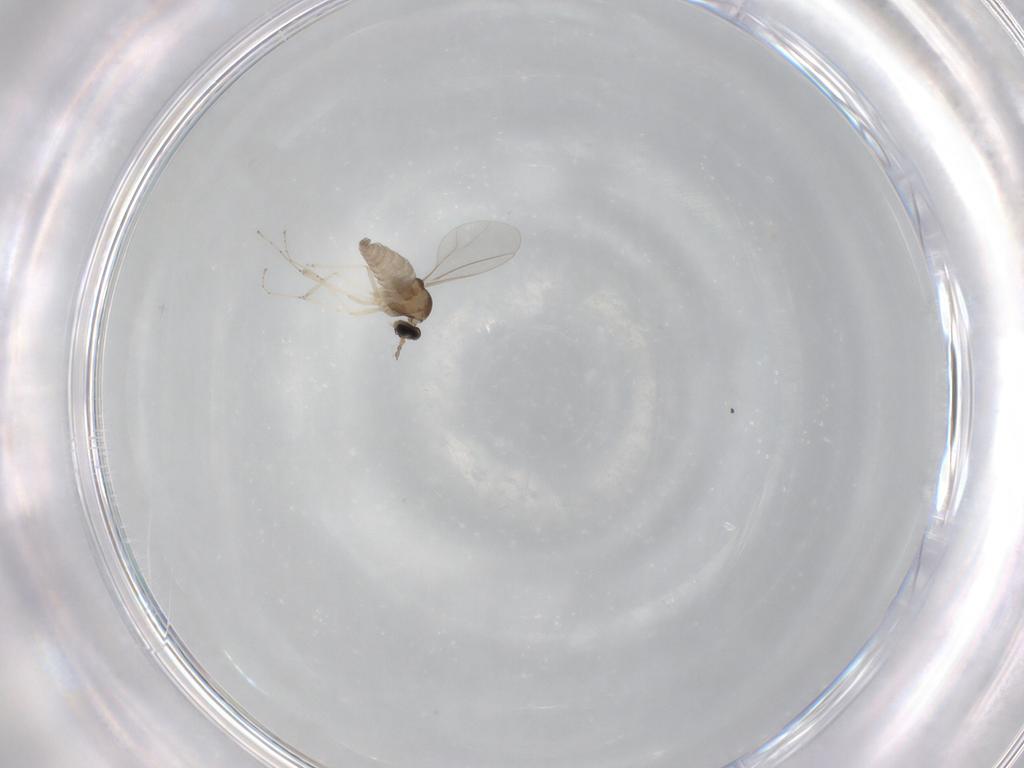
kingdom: Animalia
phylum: Arthropoda
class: Insecta
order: Diptera
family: Cecidomyiidae
